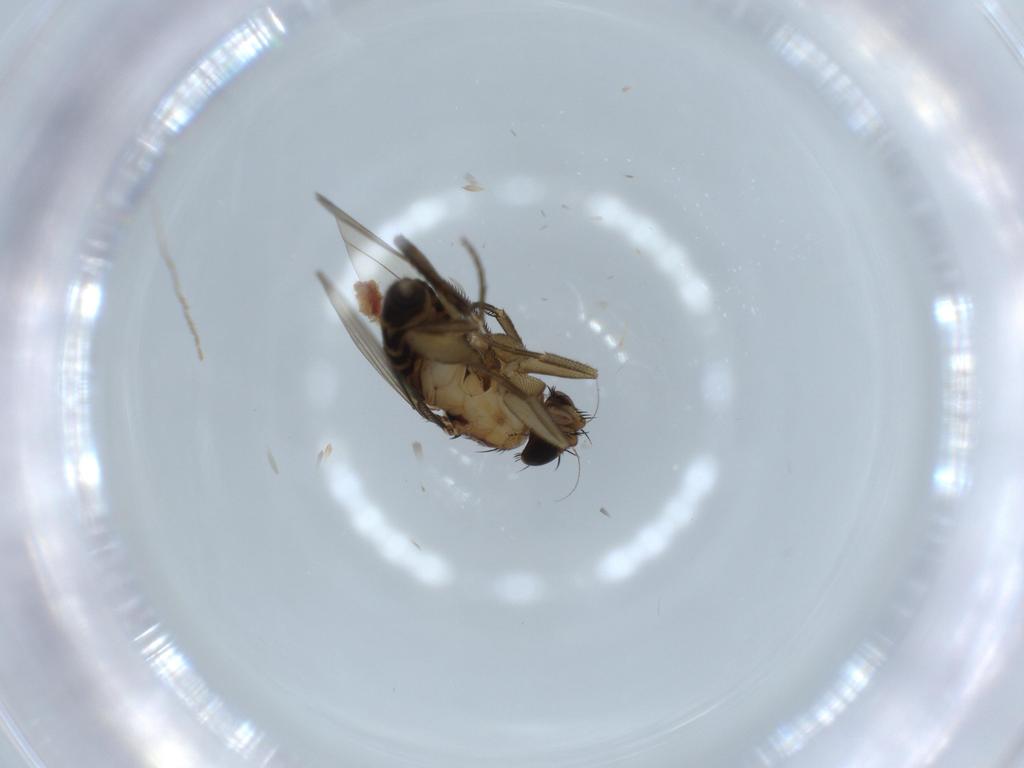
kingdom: Animalia
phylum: Arthropoda
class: Insecta
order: Diptera
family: Phoridae
